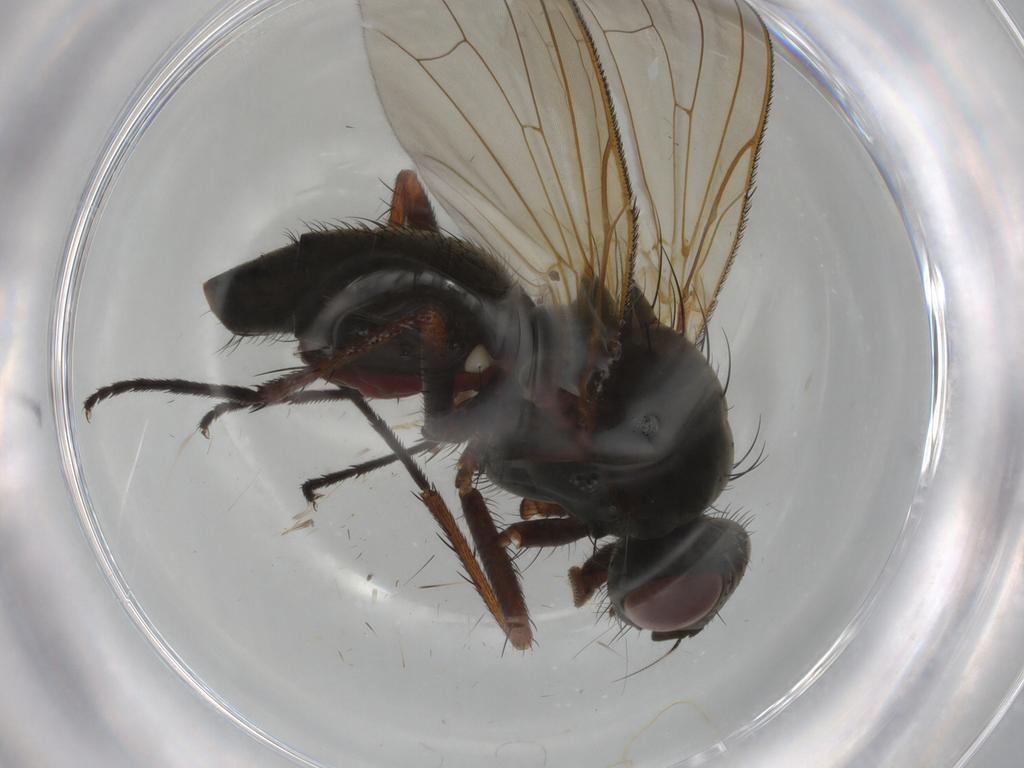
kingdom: Animalia
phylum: Arthropoda
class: Insecta
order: Diptera
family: Anthomyiidae
